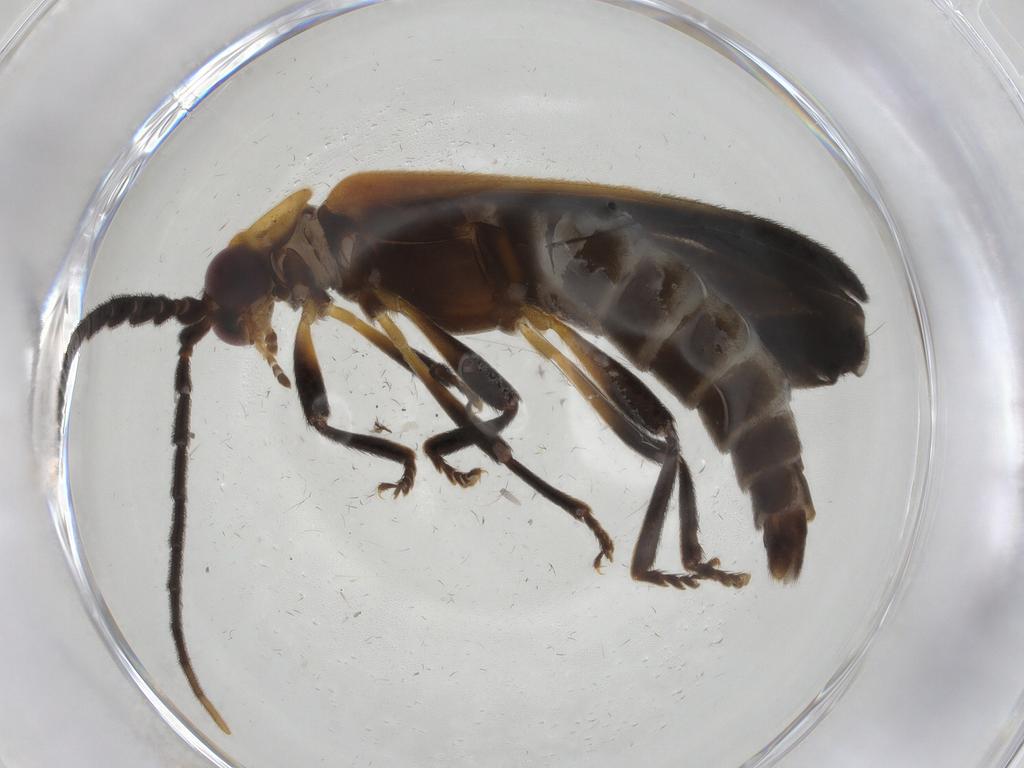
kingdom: Animalia
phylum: Arthropoda
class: Insecta
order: Coleoptera
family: Lycidae
